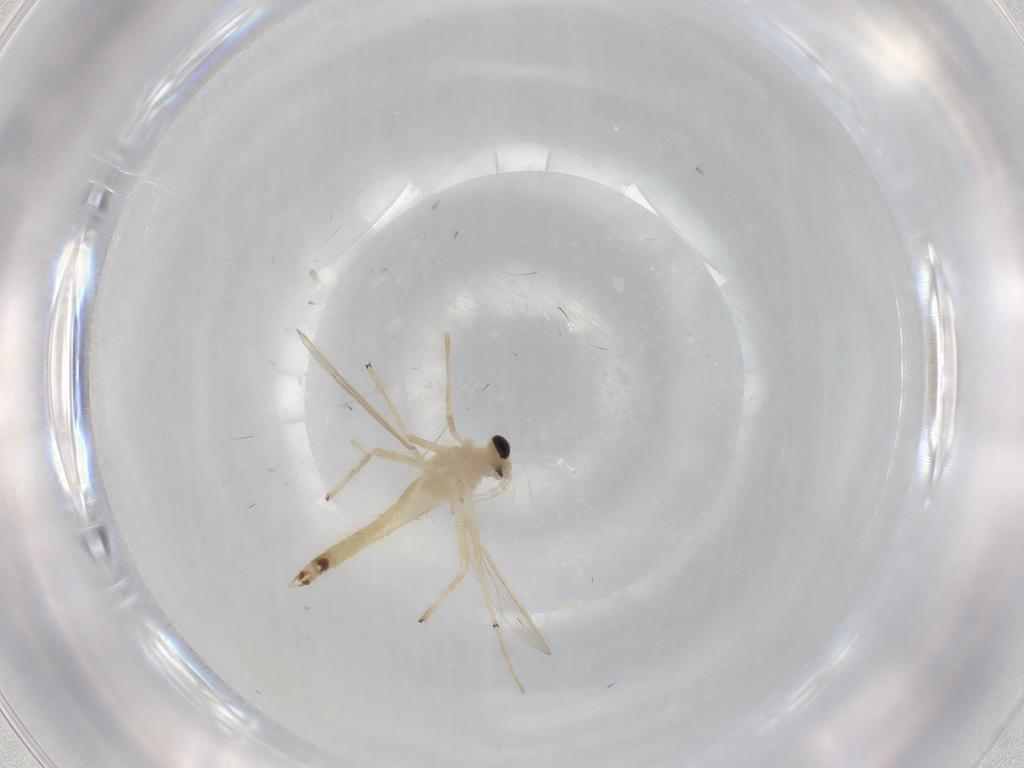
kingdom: Animalia
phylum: Arthropoda
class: Insecta
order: Diptera
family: Chironomidae
